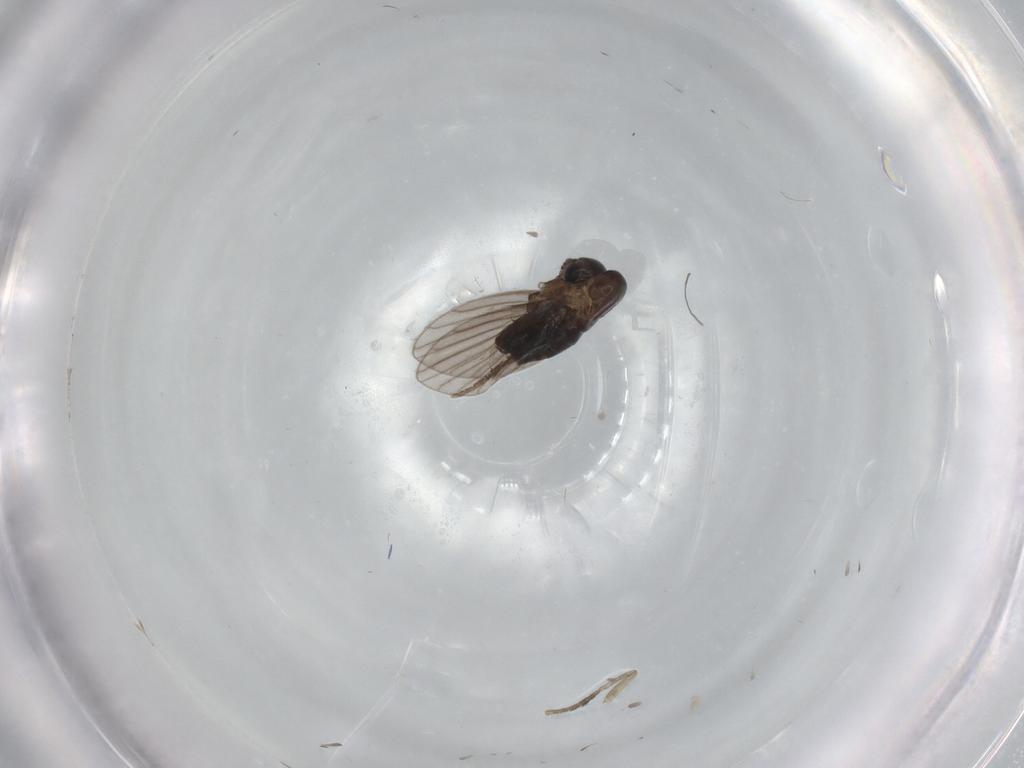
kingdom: Animalia
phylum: Arthropoda
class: Insecta
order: Diptera
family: Chironomidae
